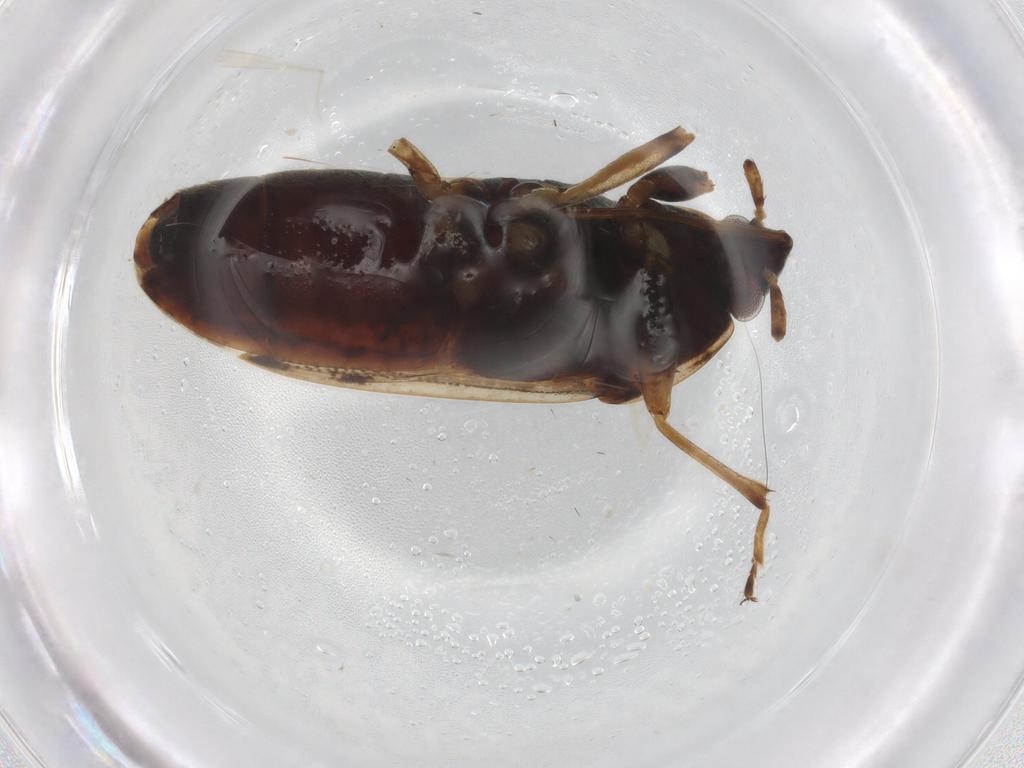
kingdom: Animalia
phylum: Arthropoda
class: Insecta
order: Hemiptera
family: Rhyparochromidae
